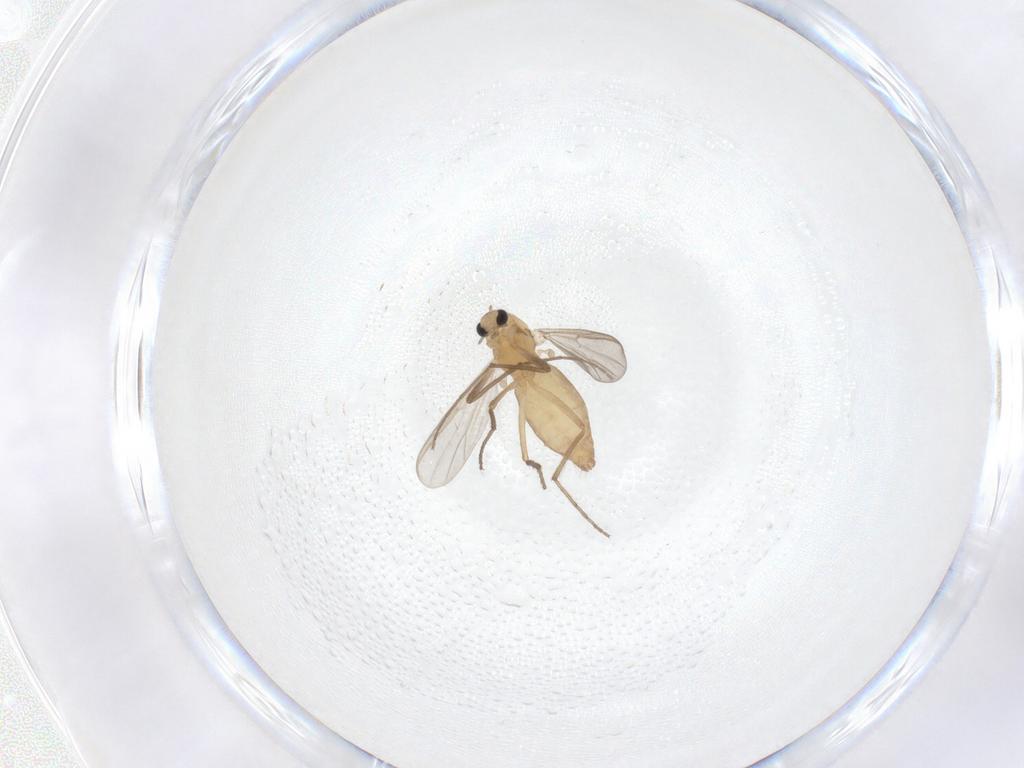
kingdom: Animalia
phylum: Arthropoda
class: Insecta
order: Diptera
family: Chironomidae
